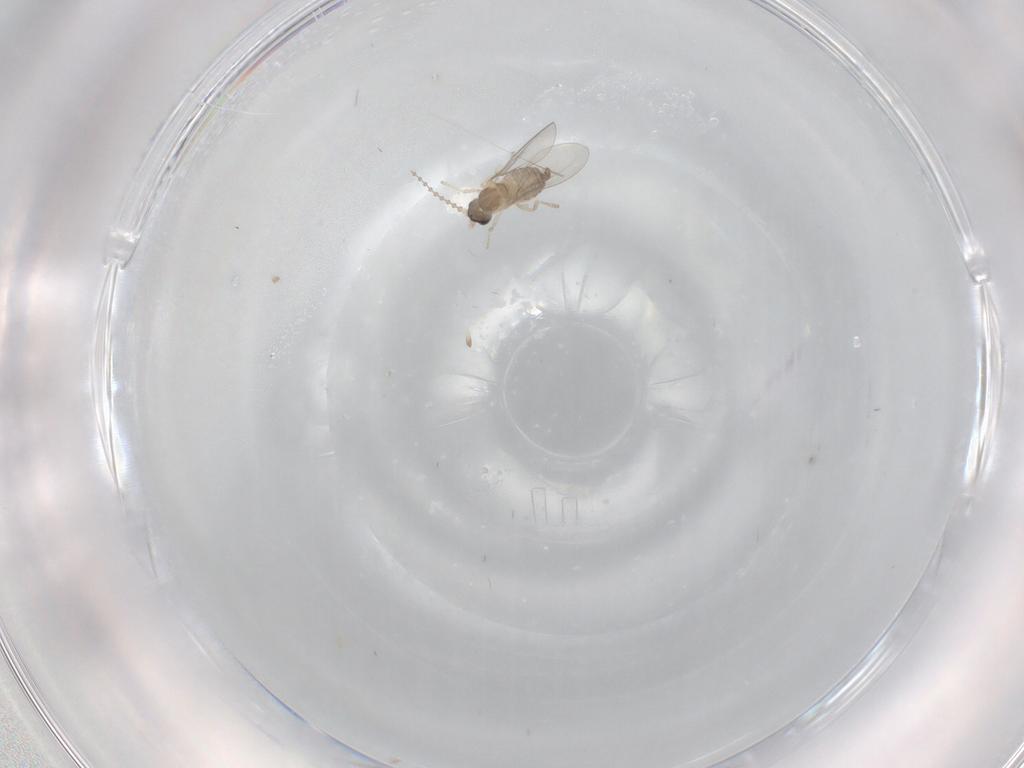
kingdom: Animalia
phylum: Arthropoda
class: Insecta
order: Diptera
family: Cecidomyiidae
